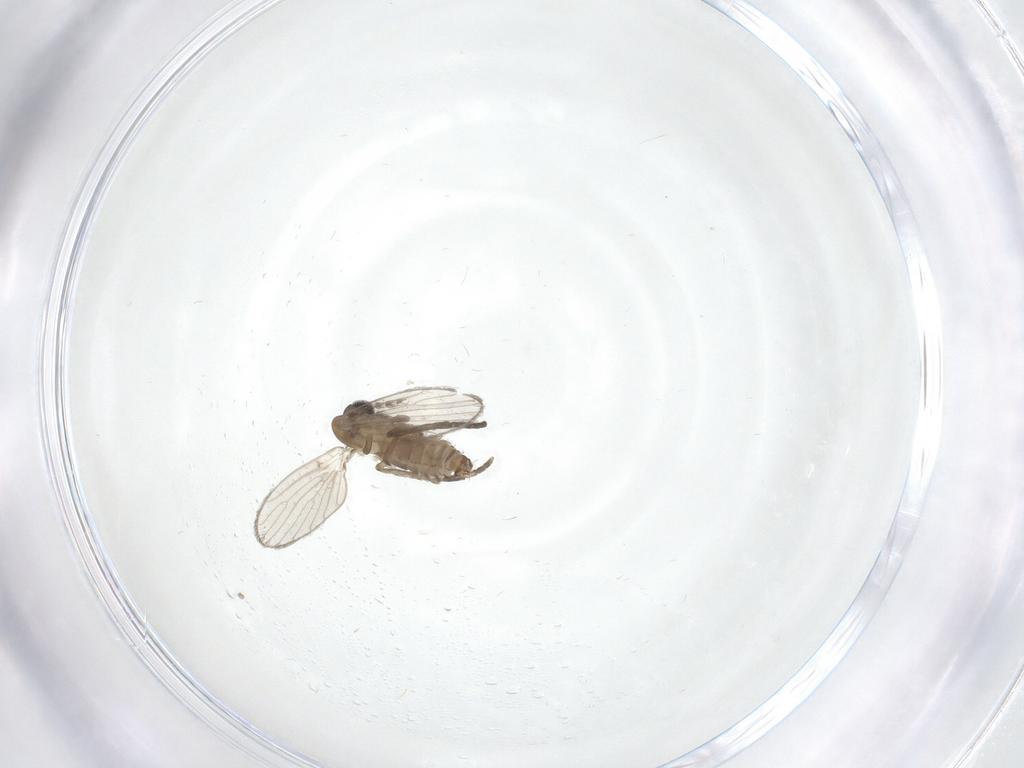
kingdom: Animalia
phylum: Arthropoda
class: Insecta
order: Diptera
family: Psychodidae
